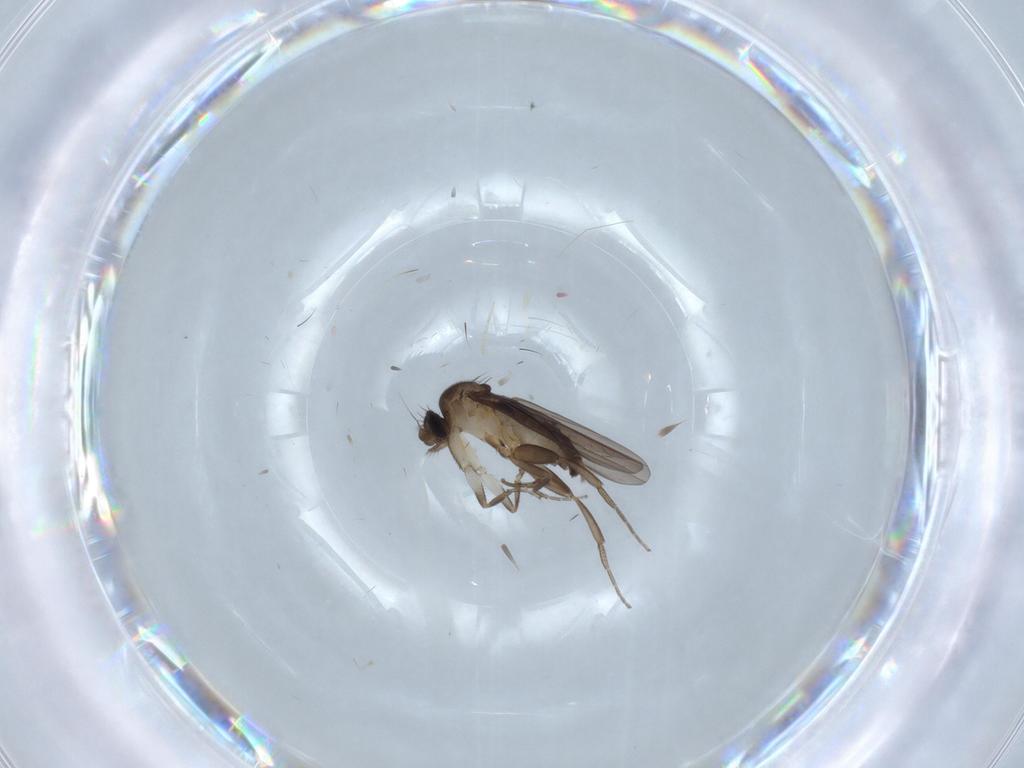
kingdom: Animalia
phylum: Arthropoda
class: Insecta
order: Diptera
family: Cecidomyiidae
